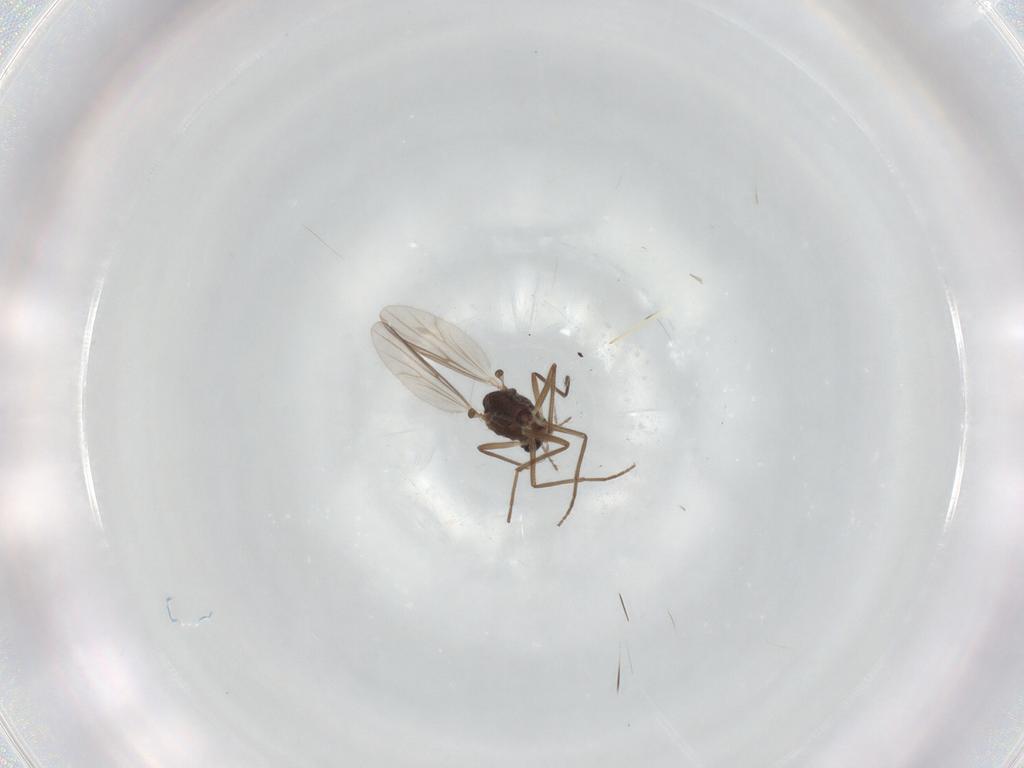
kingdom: Animalia
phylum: Arthropoda
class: Insecta
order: Diptera
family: Chironomidae
